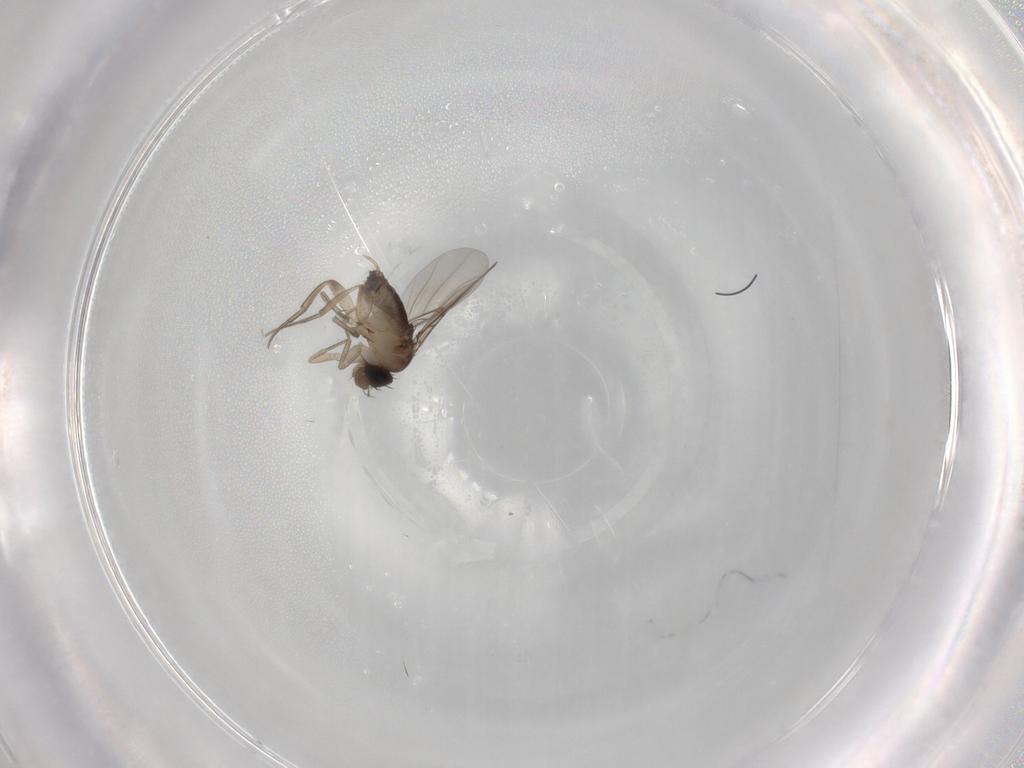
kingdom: Animalia
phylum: Arthropoda
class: Insecta
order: Diptera
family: Phoridae
